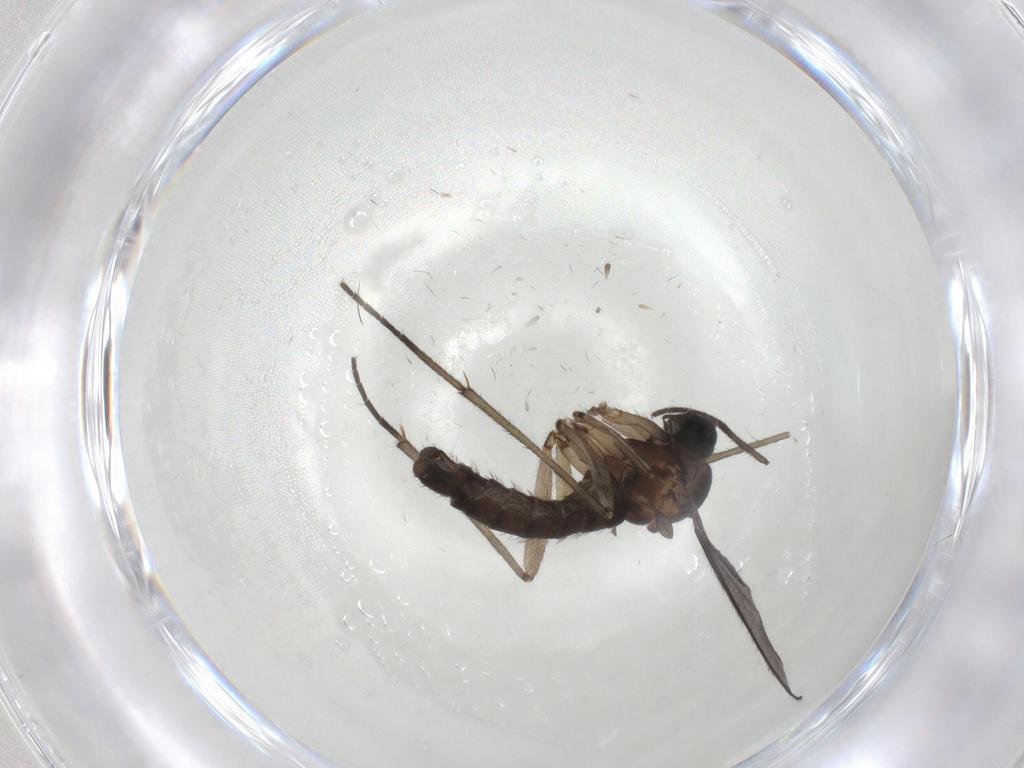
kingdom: Animalia
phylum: Arthropoda
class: Insecta
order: Diptera
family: Sciaridae
